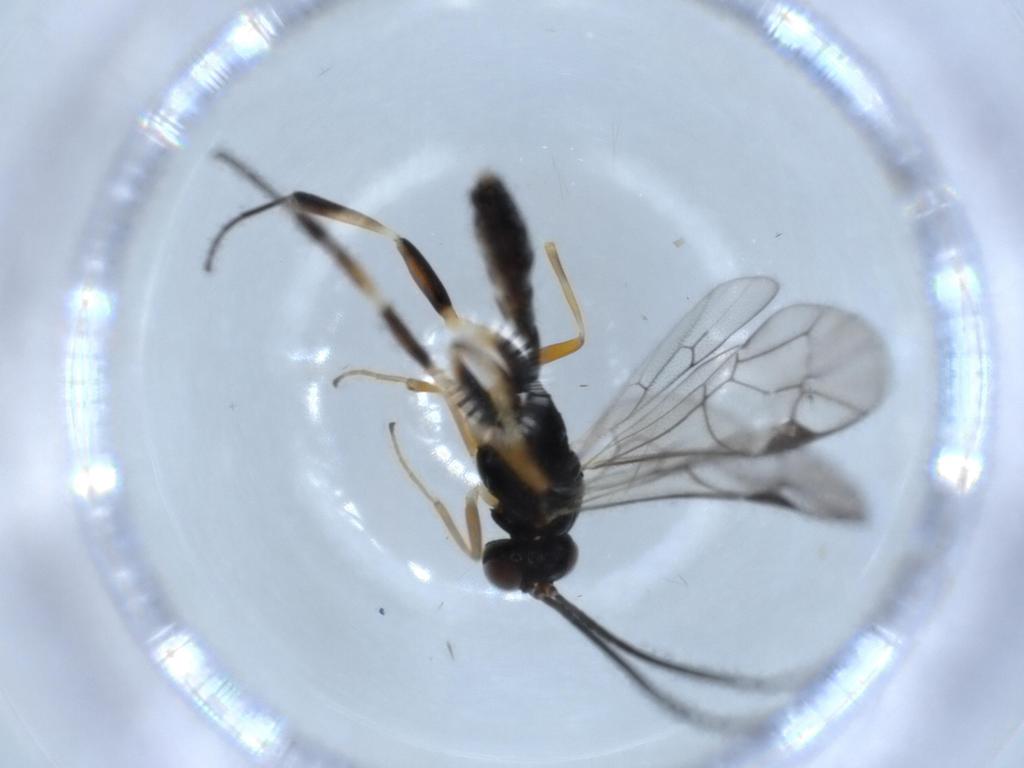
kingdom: Animalia
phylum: Arthropoda
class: Insecta
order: Hymenoptera
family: Ichneumonidae
